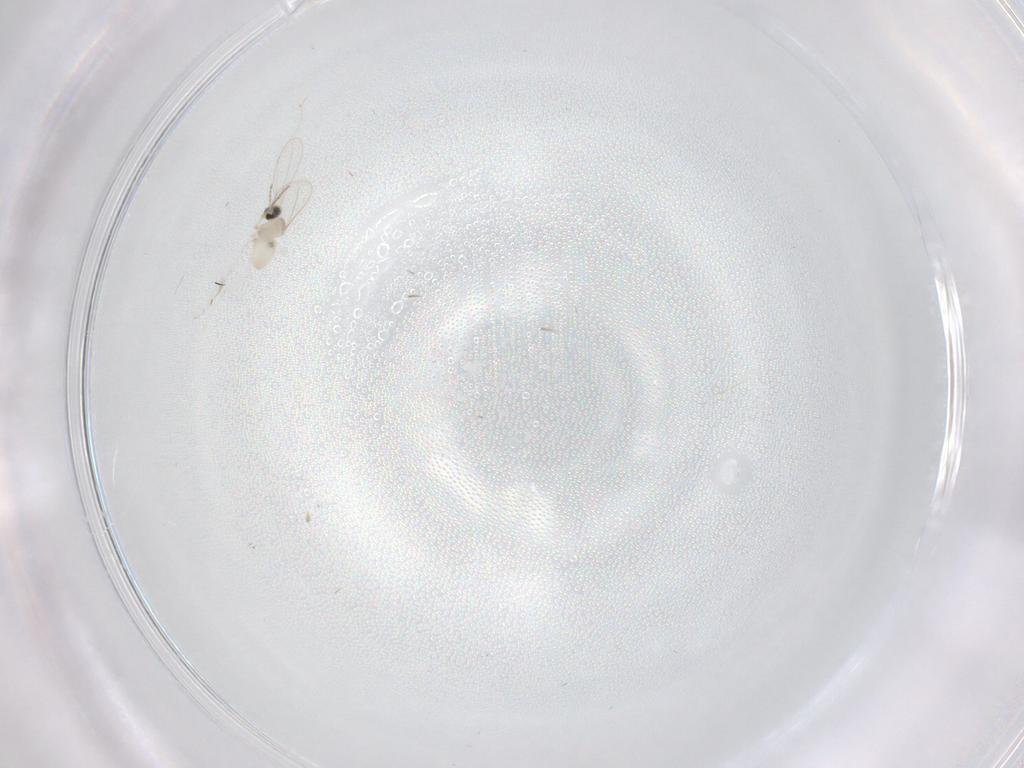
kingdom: Animalia
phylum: Arthropoda
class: Insecta
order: Diptera
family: Chironomidae
